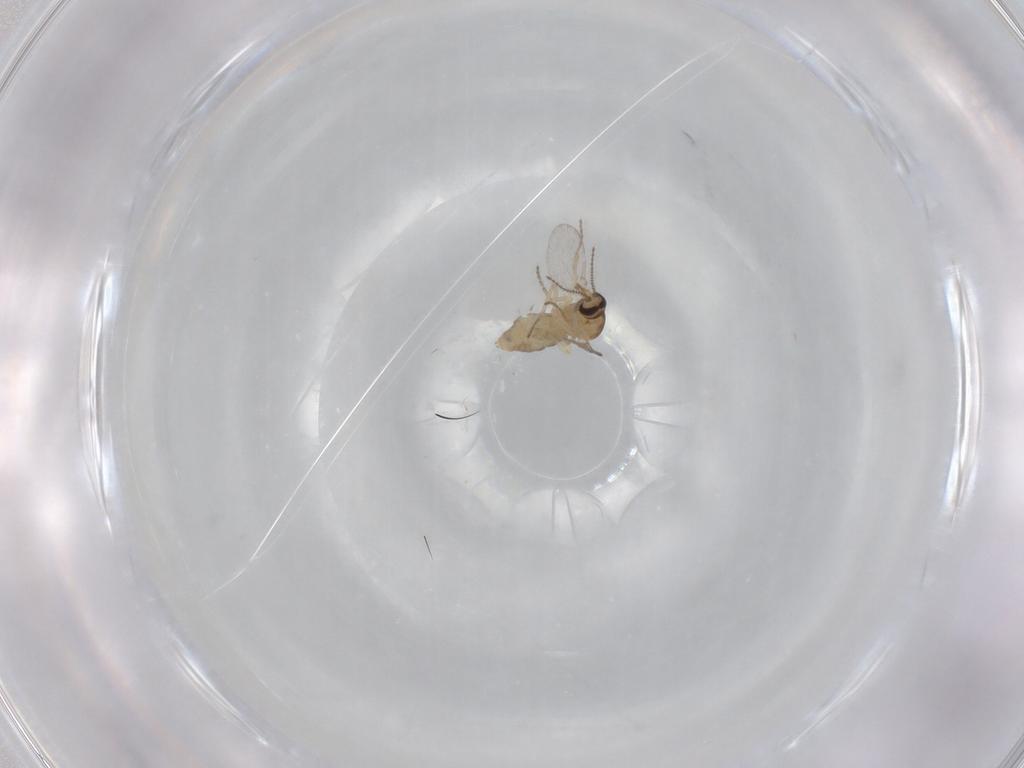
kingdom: Animalia
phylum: Arthropoda
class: Insecta
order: Diptera
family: Ceratopogonidae
